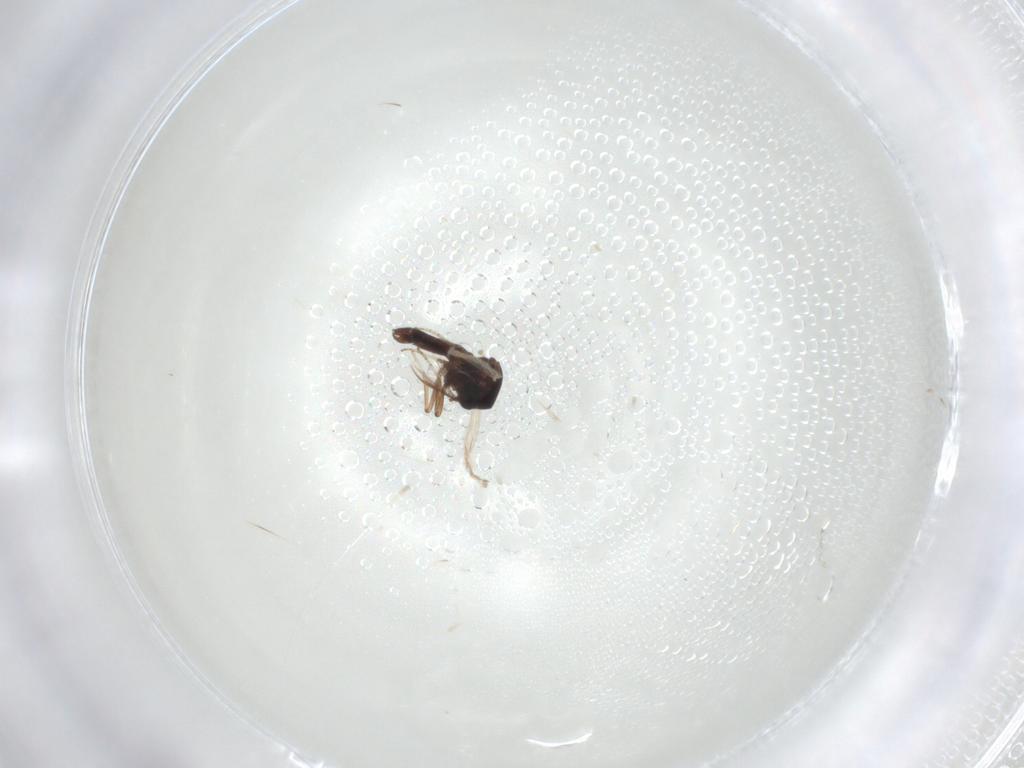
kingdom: Animalia
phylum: Arthropoda
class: Insecta
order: Diptera
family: Ceratopogonidae
